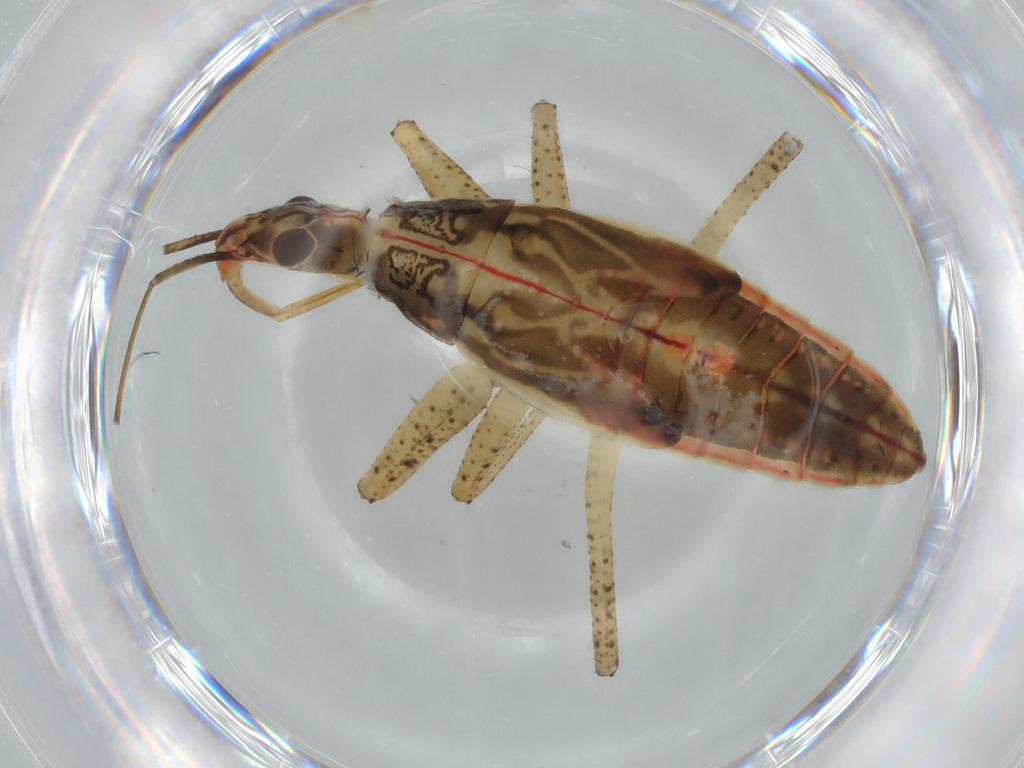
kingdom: Animalia
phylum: Arthropoda
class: Insecta
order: Hemiptera
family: Nabidae
